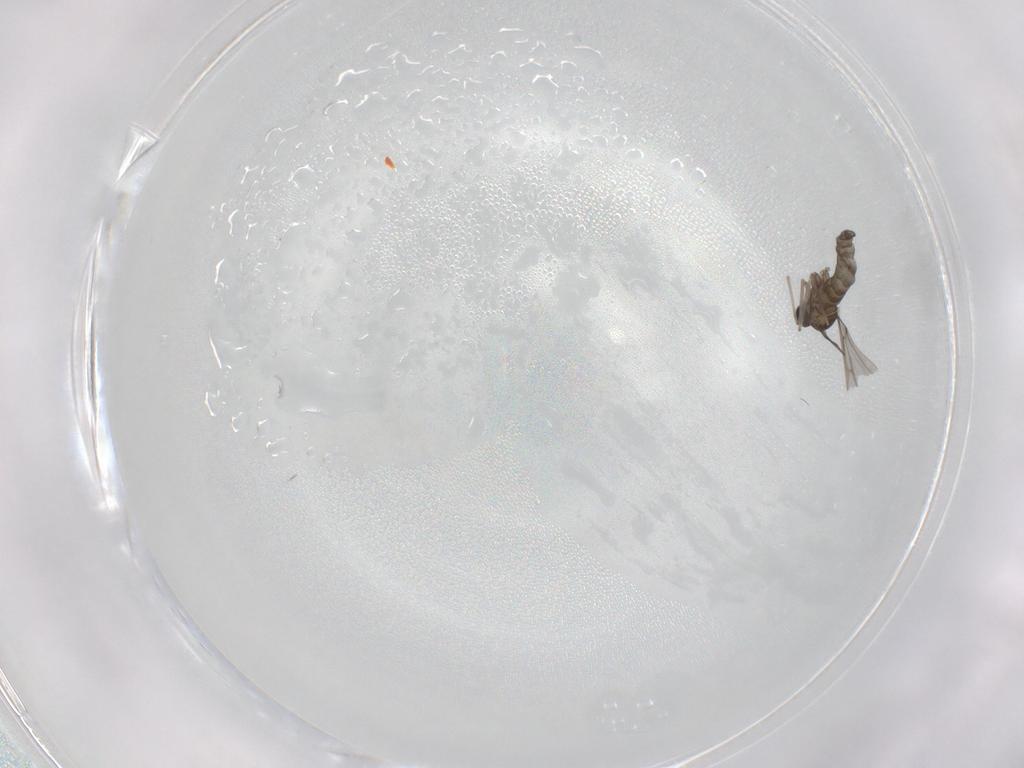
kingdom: Animalia
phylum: Arthropoda
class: Insecta
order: Diptera
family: Cecidomyiidae
